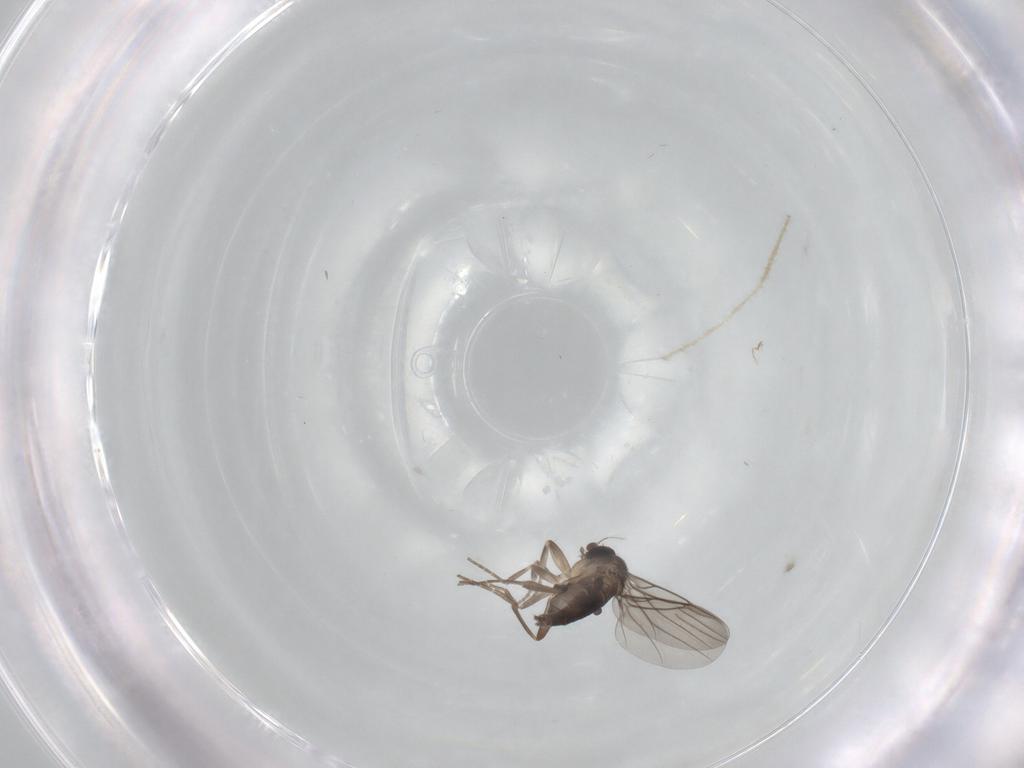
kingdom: Animalia
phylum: Arthropoda
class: Insecta
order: Diptera
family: Phoridae
